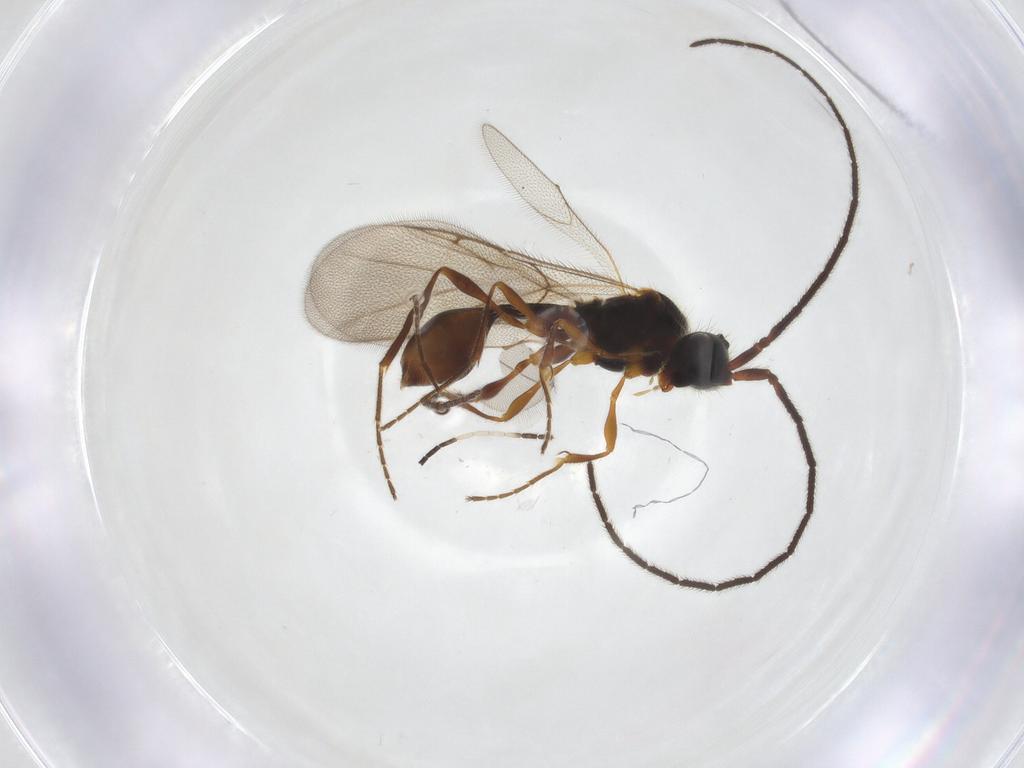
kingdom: Animalia
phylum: Arthropoda
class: Insecta
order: Hymenoptera
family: Diapriidae
